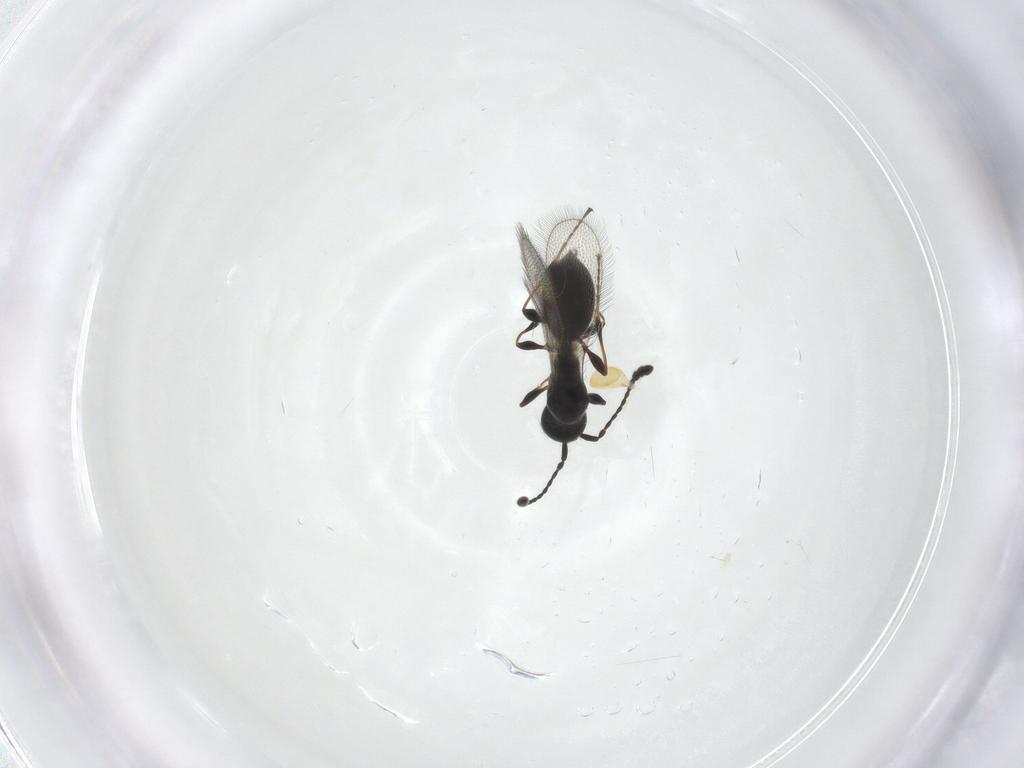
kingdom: Animalia
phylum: Arthropoda
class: Insecta
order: Hymenoptera
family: Diapriidae
